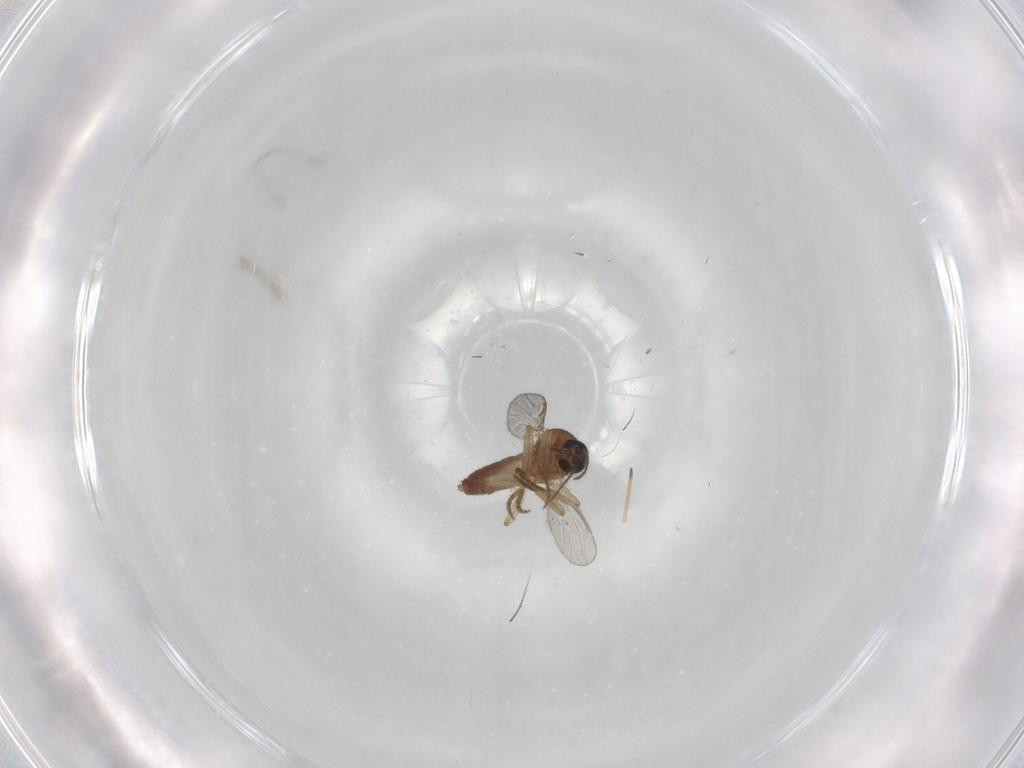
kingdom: Animalia
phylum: Arthropoda
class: Insecta
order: Diptera
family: Ceratopogonidae
